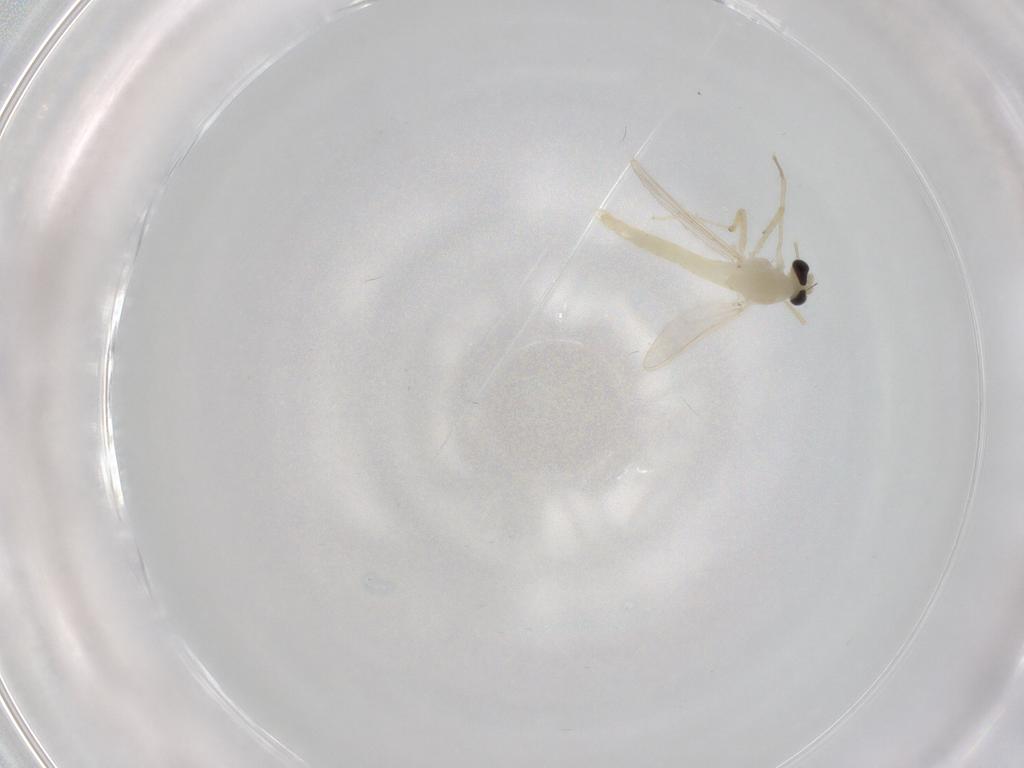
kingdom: Animalia
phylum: Arthropoda
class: Insecta
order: Diptera
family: Chironomidae
